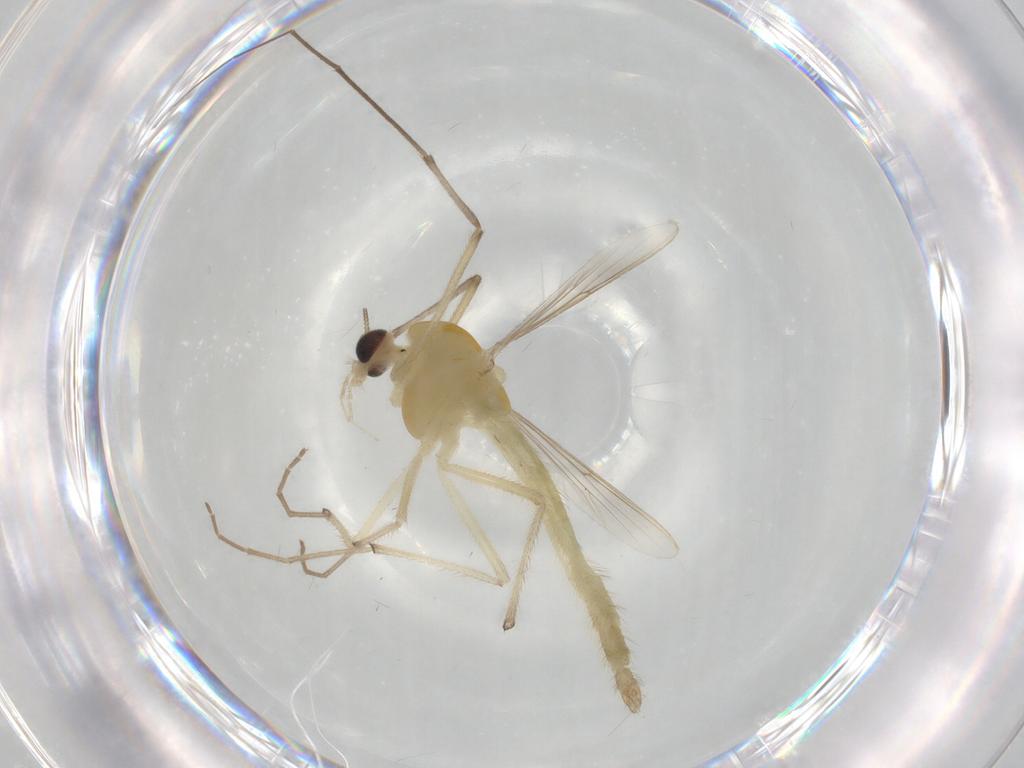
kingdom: Animalia
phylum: Arthropoda
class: Insecta
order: Diptera
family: Chironomidae
